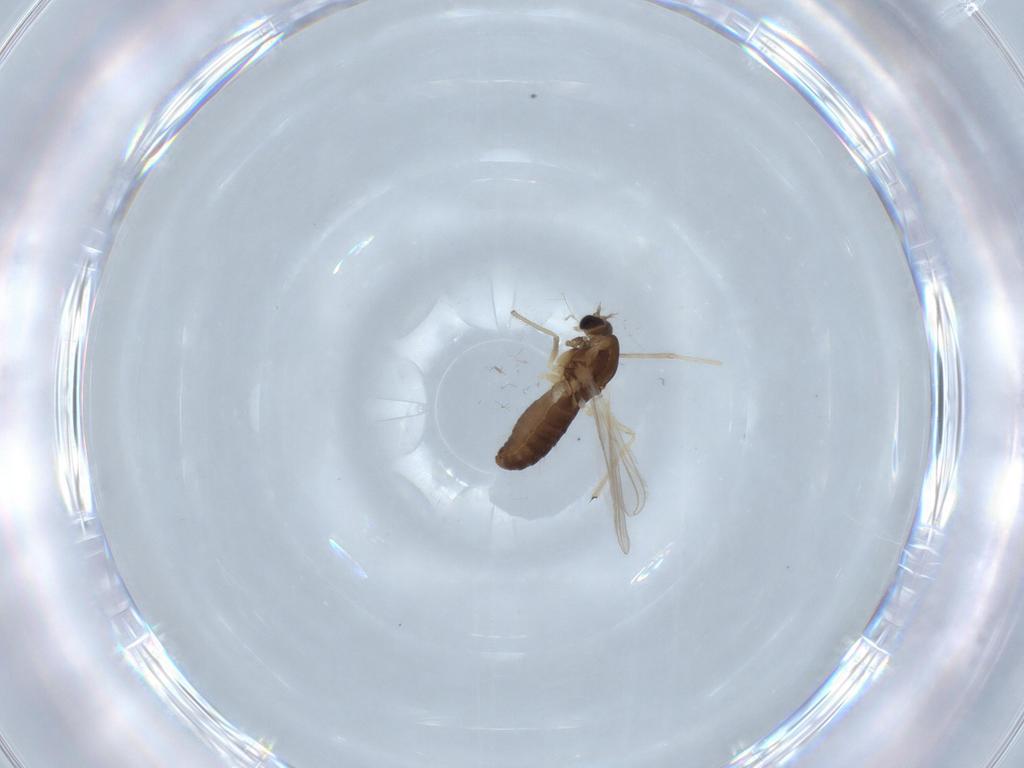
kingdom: Animalia
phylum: Arthropoda
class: Insecta
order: Diptera
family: Chironomidae
